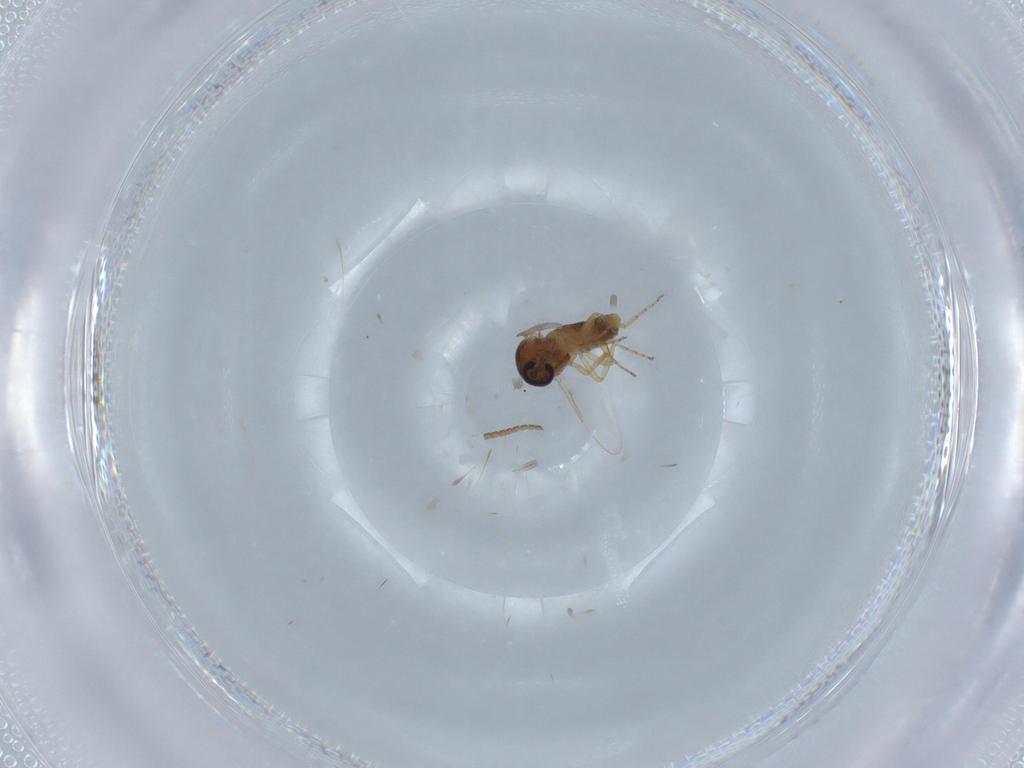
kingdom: Animalia
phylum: Arthropoda
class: Insecta
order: Diptera
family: Ceratopogonidae
